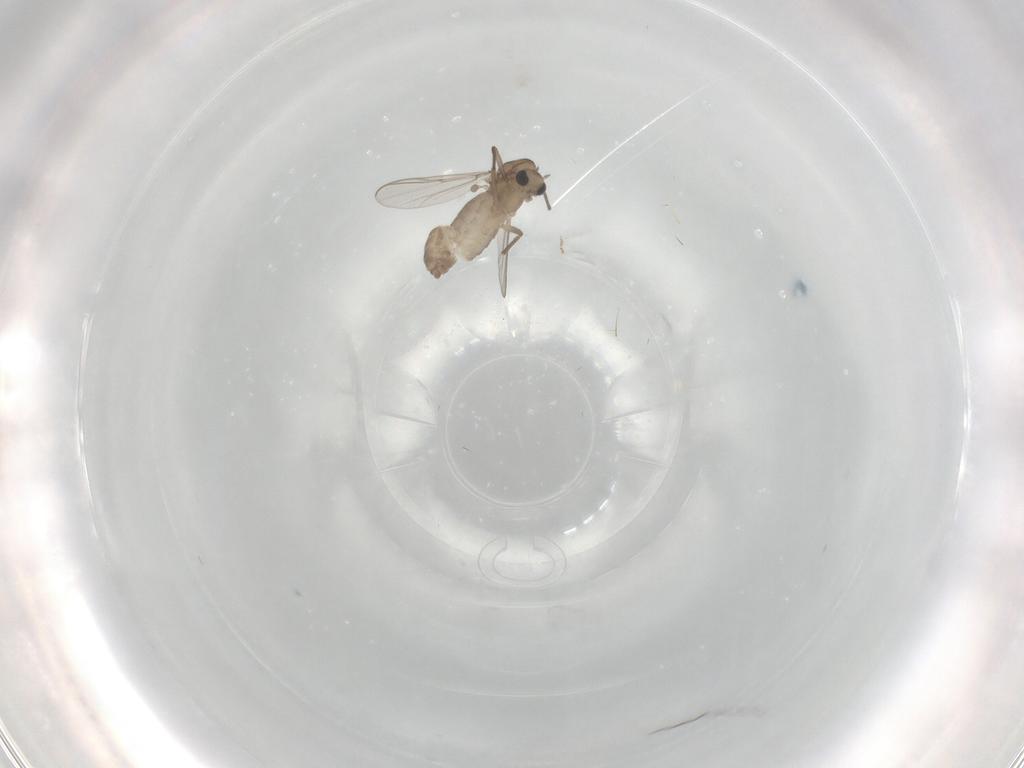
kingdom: Animalia
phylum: Arthropoda
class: Insecta
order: Diptera
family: Chironomidae
